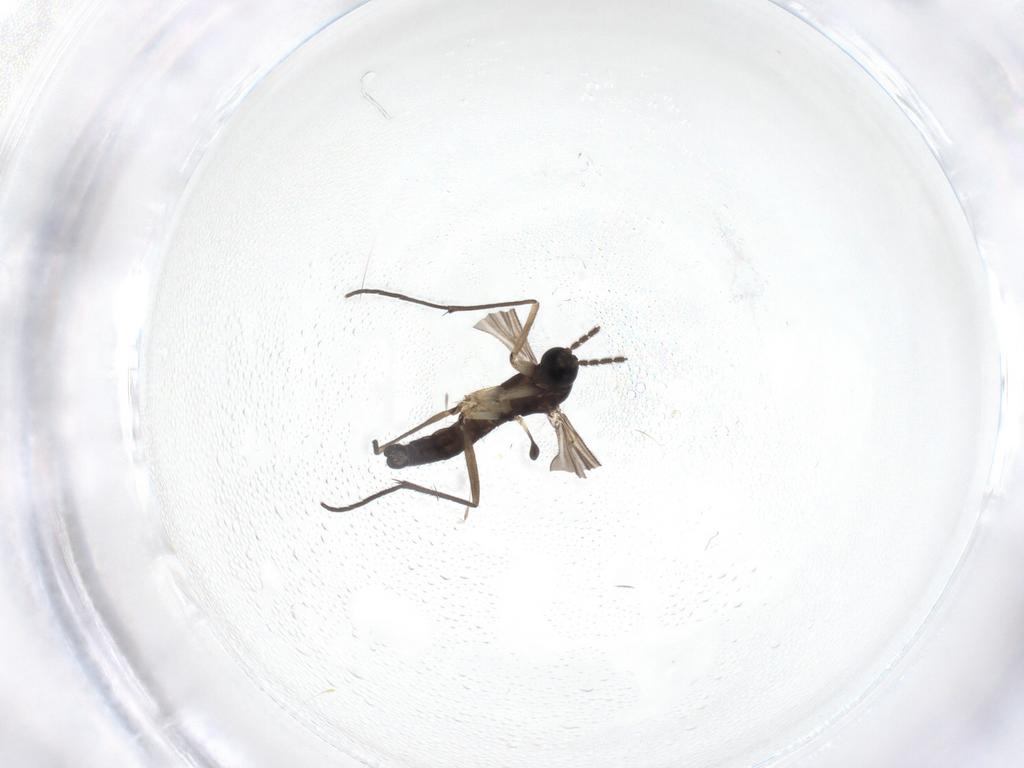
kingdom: Animalia
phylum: Arthropoda
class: Insecta
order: Diptera
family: Sciaridae
